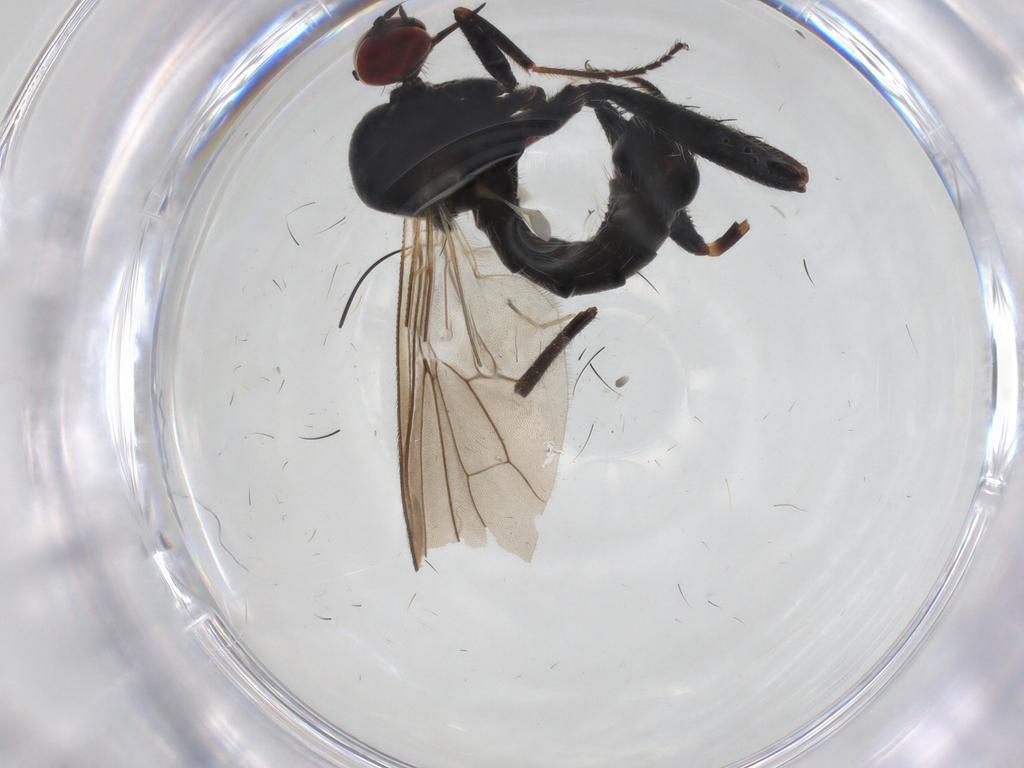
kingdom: Animalia
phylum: Arthropoda
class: Insecta
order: Diptera
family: Hybotidae
